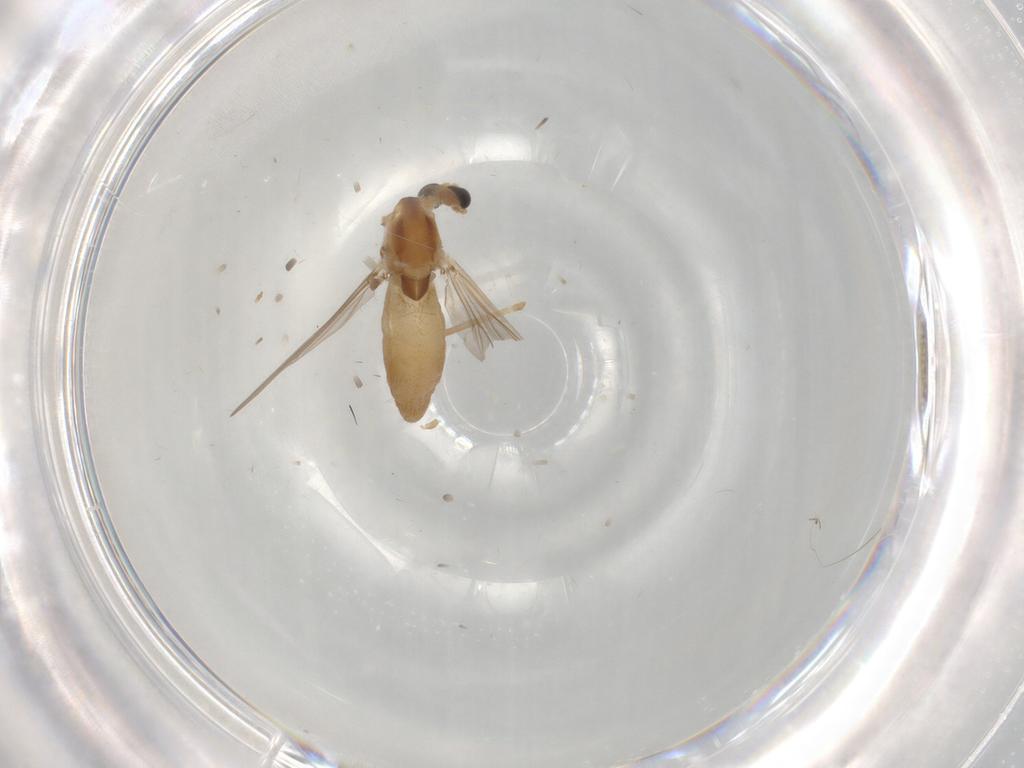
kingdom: Animalia
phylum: Arthropoda
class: Insecta
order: Diptera
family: Chironomidae
